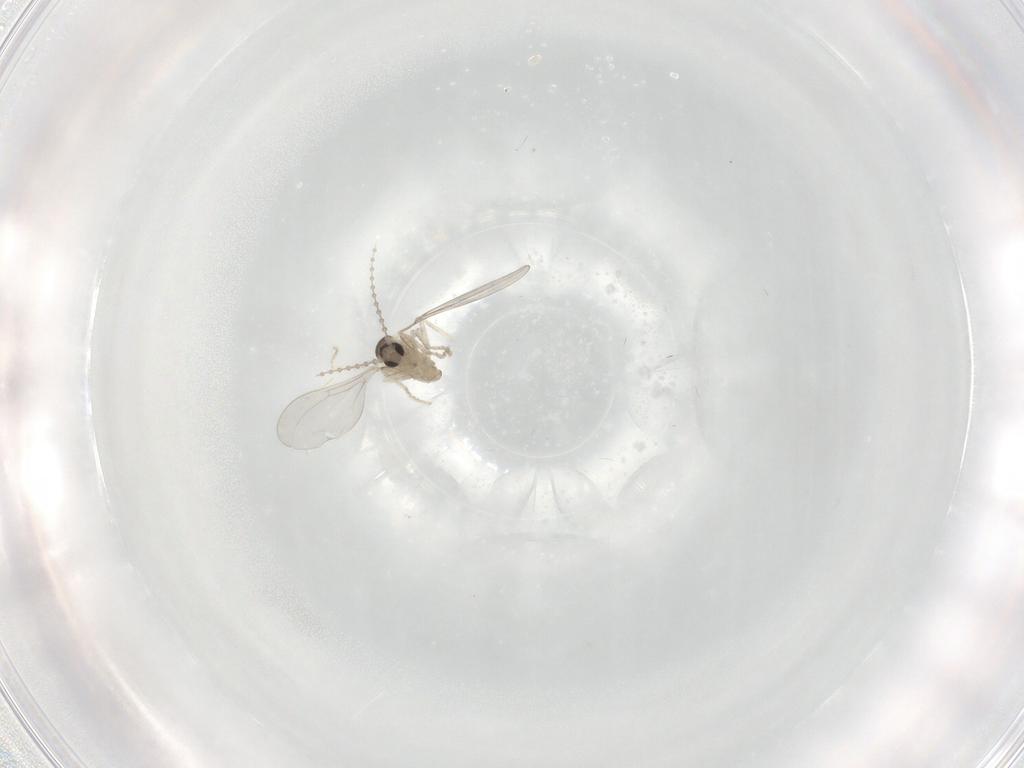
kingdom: Animalia
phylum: Arthropoda
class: Insecta
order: Diptera
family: Cecidomyiidae
